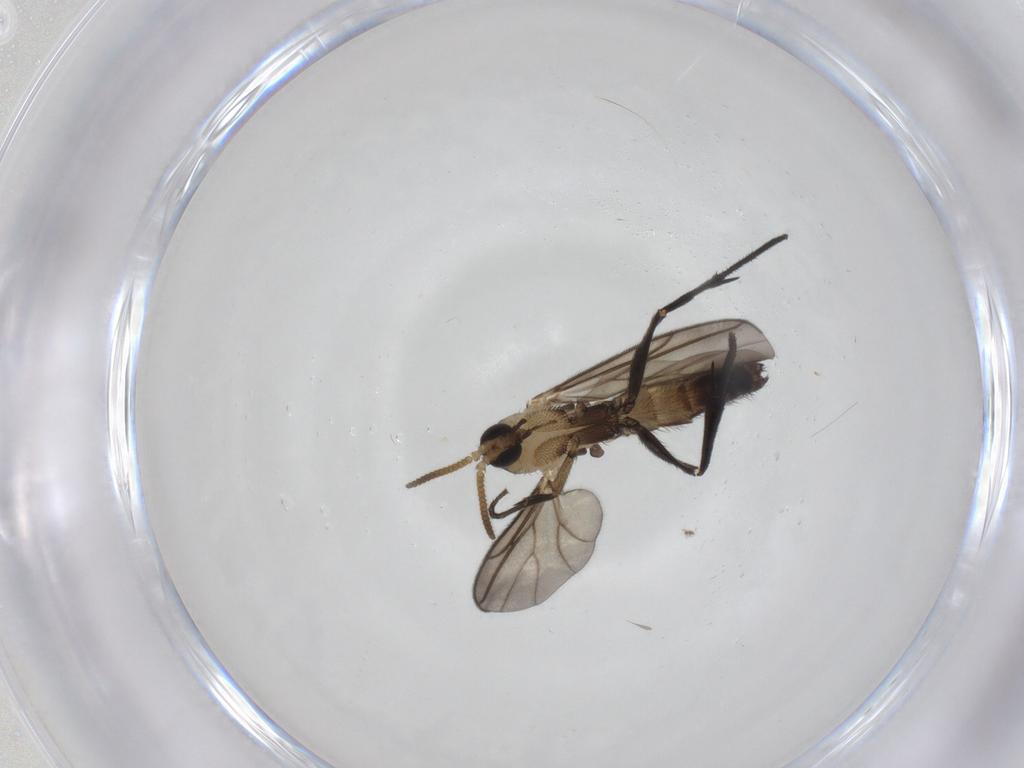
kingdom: Animalia
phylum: Arthropoda
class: Insecta
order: Diptera
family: Mycetophilidae
